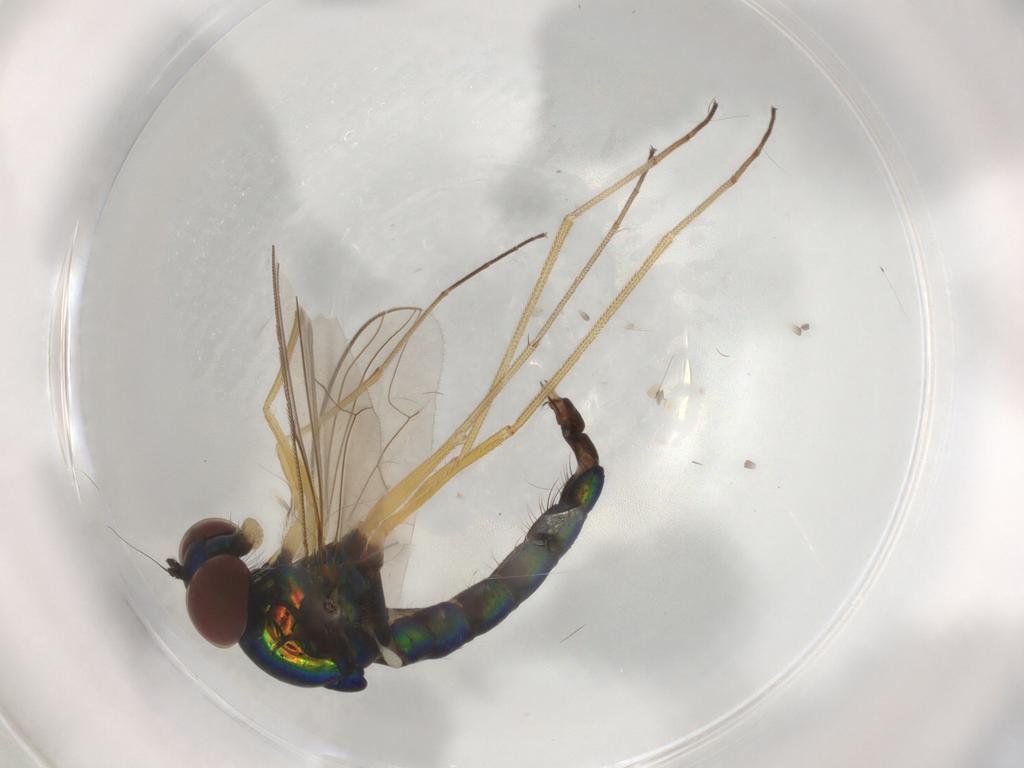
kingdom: Animalia
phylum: Arthropoda
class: Insecta
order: Diptera
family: Dolichopodidae
